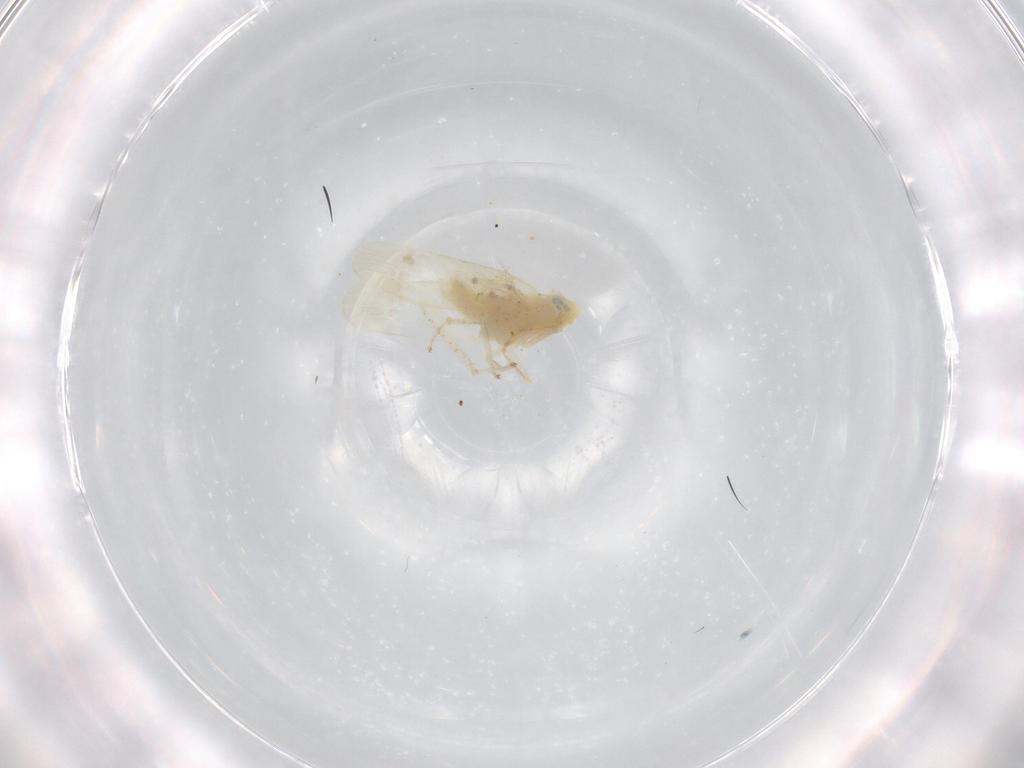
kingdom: Animalia
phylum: Arthropoda
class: Insecta
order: Hemiptera
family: Cicadellidae
